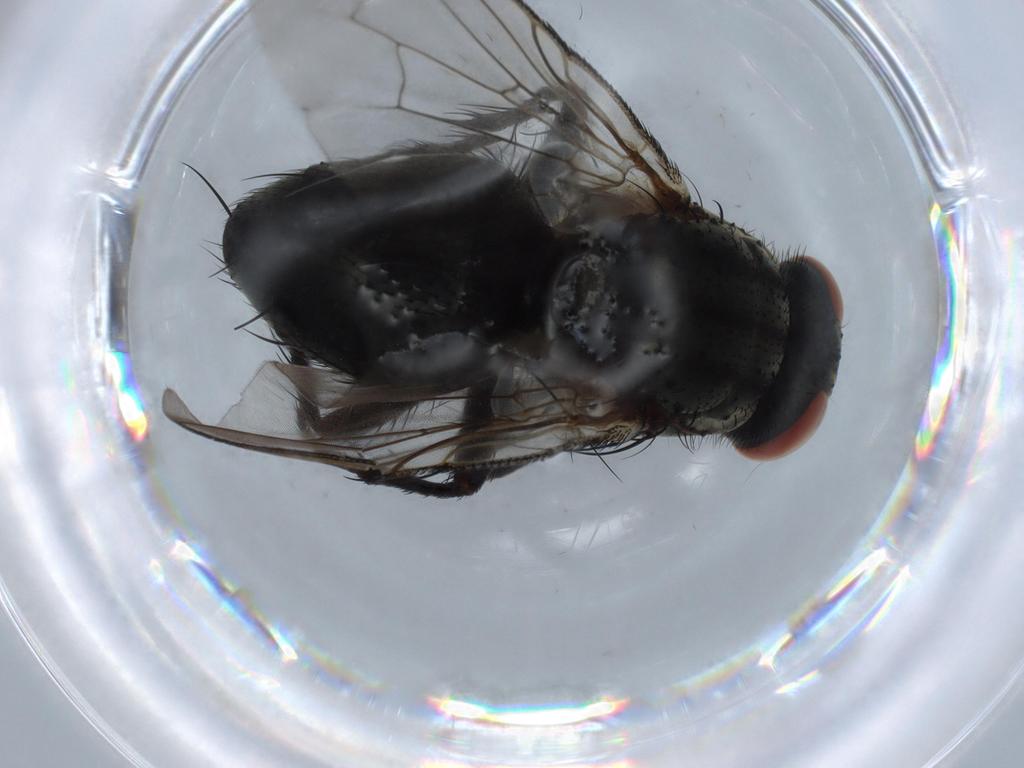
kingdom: Animalia
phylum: Arthropoda
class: Insecta
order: Diptera
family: Sarcophagidae
